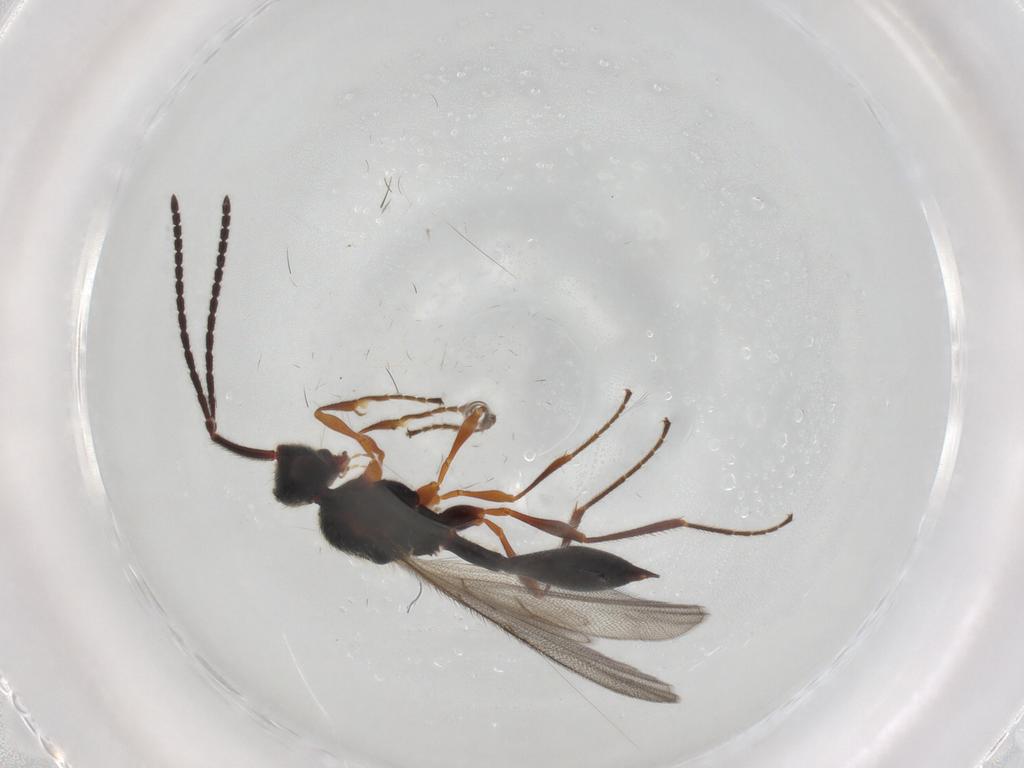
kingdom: Animalia
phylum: Arthropoda
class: Insecta
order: Hymenoptera
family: Diapriidae
